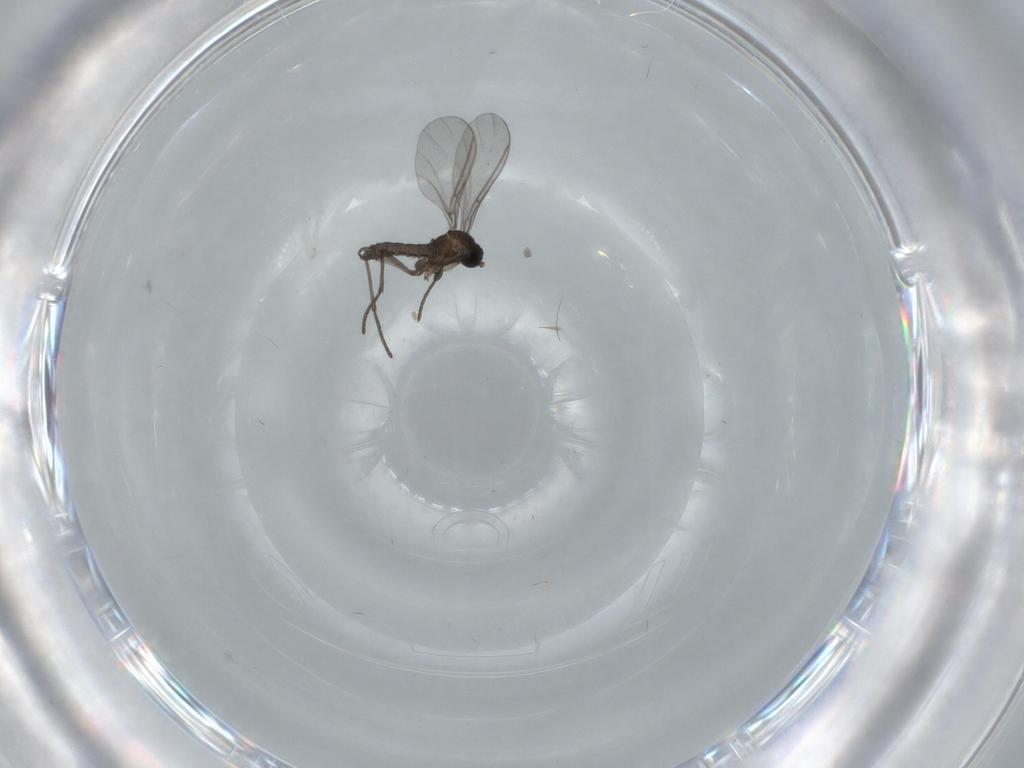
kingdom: Animalia
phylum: Arthropoda
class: Insecta
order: Diptera
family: Sciaridae
